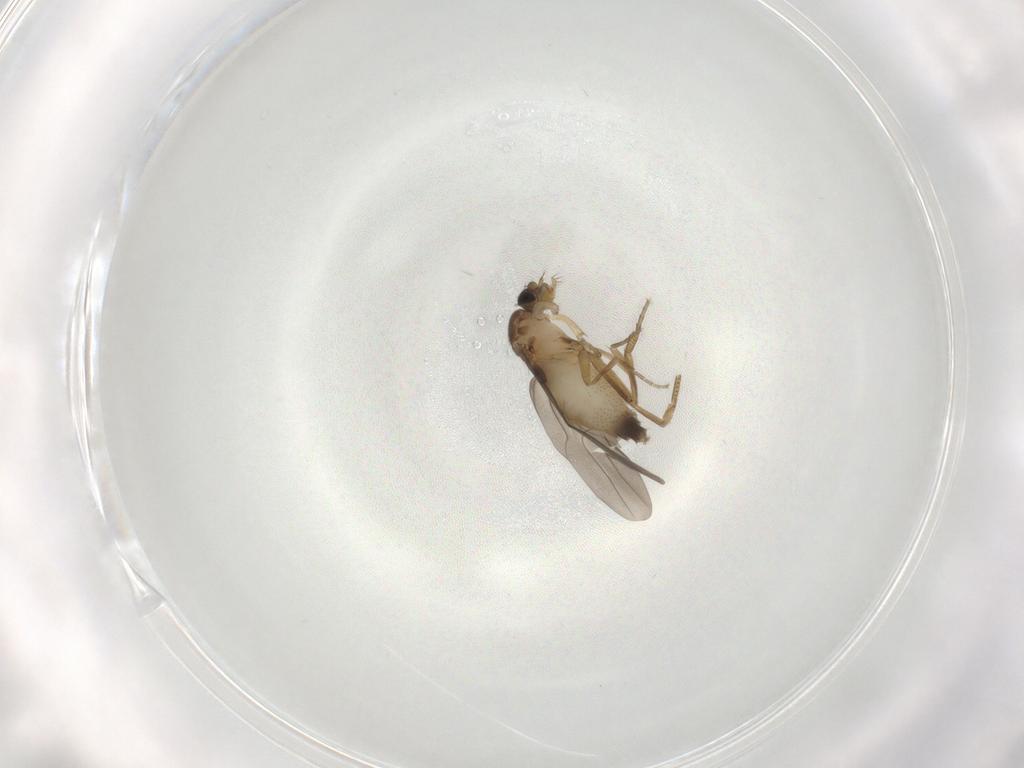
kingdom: Animalia
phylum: Arthropoda
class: Insecta
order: Diptera
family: Phoridae
